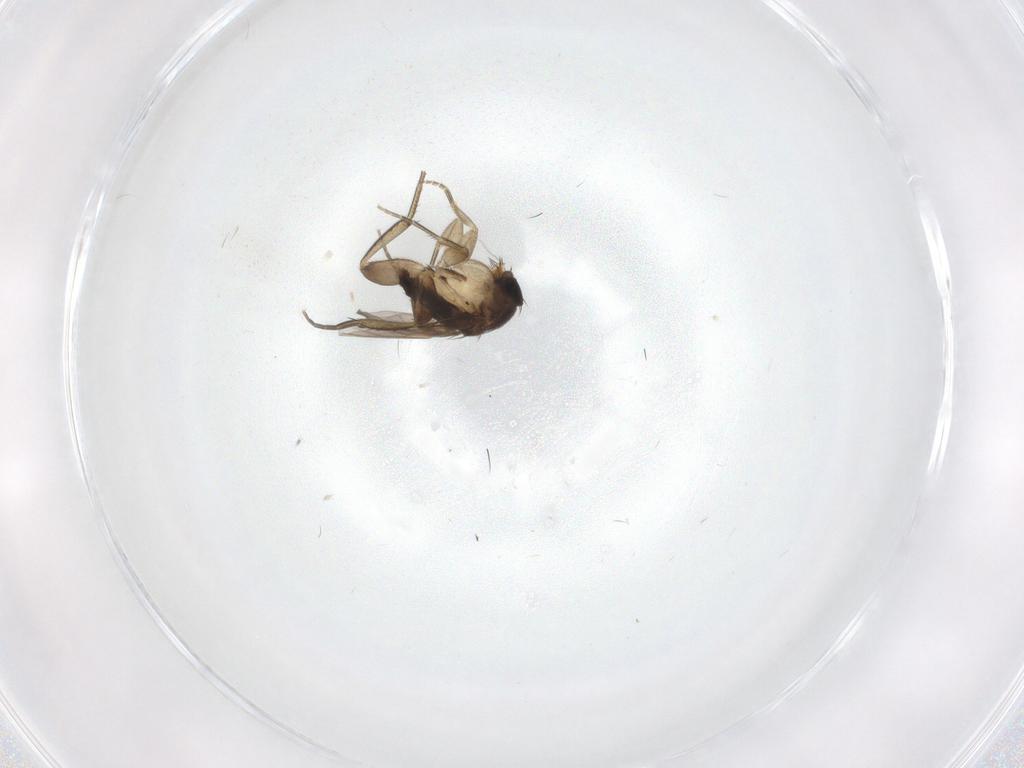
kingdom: Animalia
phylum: Arthropoda
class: Insecta
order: Diptera
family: Phoridae
